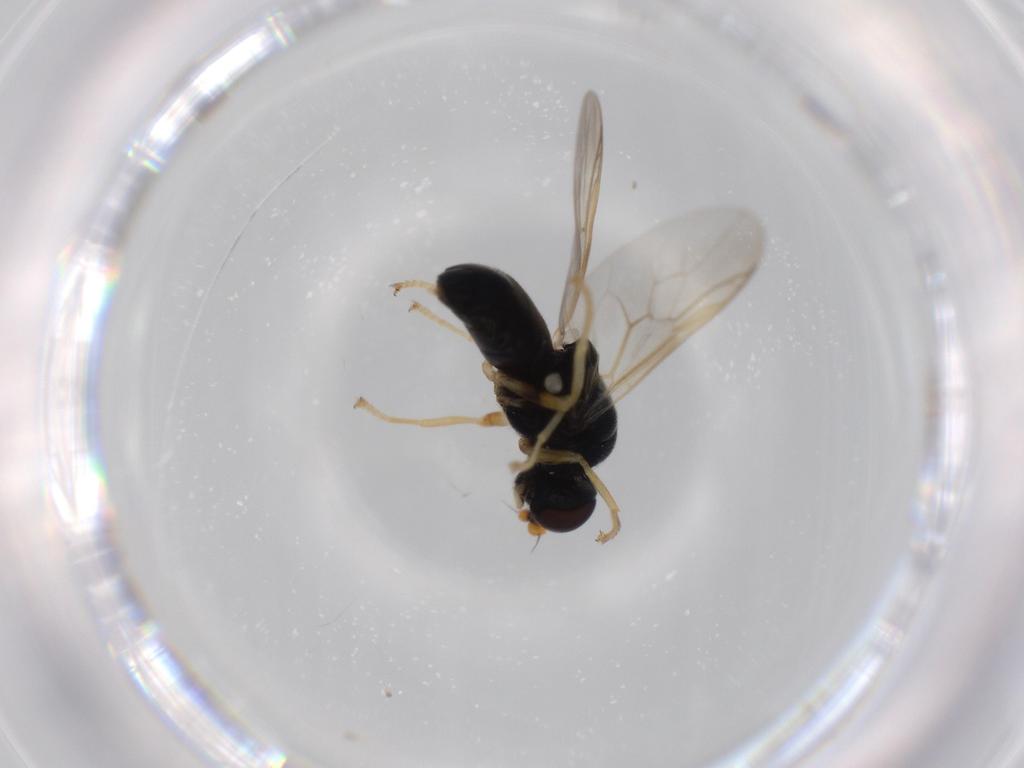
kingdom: Animalia
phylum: Arthropoda
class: Insecta
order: Diptera
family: Stratiomyidae
